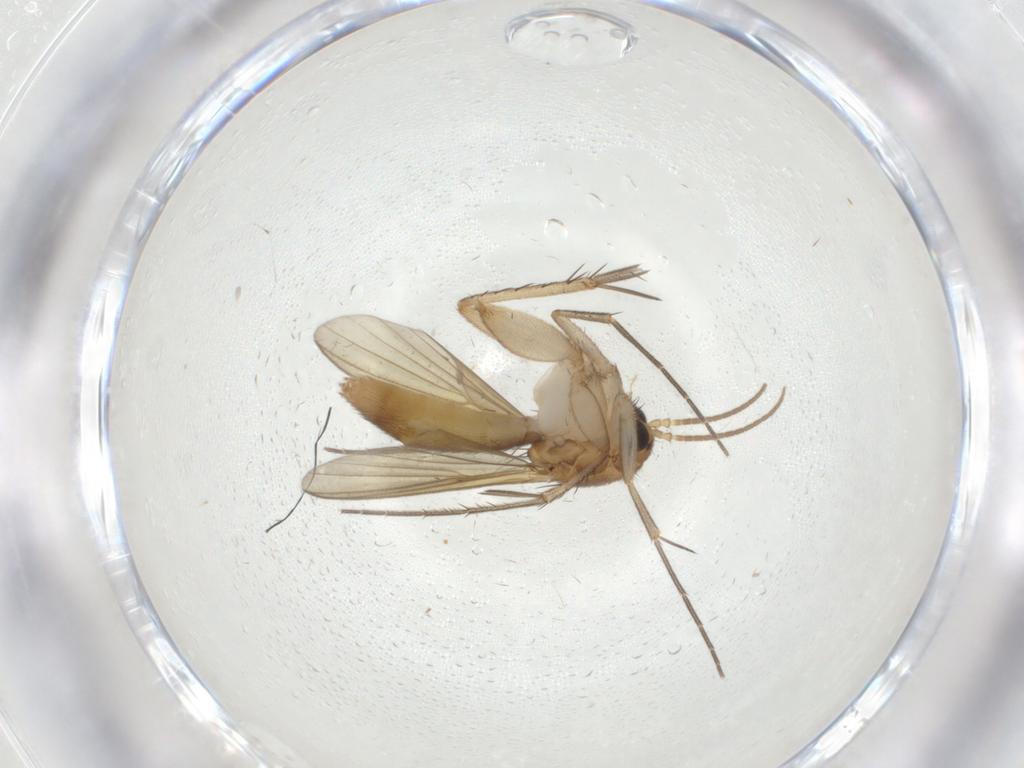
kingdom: Animalia
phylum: Arthropoda
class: Insecta
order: Diptera
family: Mycetophilidae
